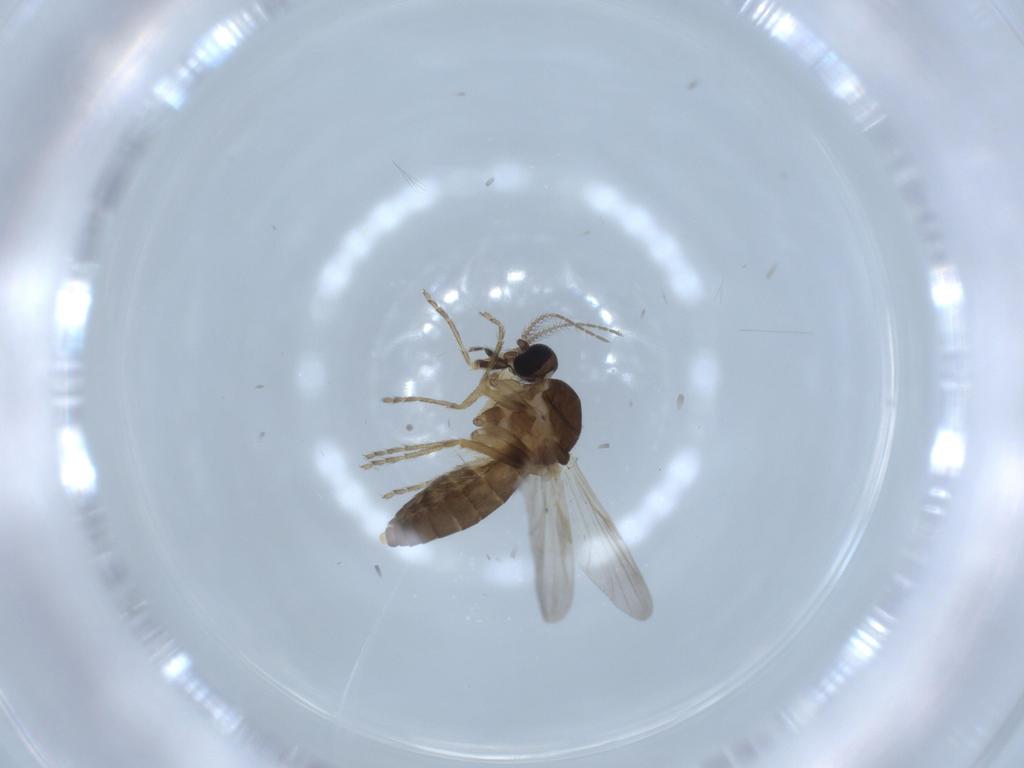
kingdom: Animalia
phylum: Arthropoda
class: Insecta
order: Diptera
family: Ceratopogonidae
